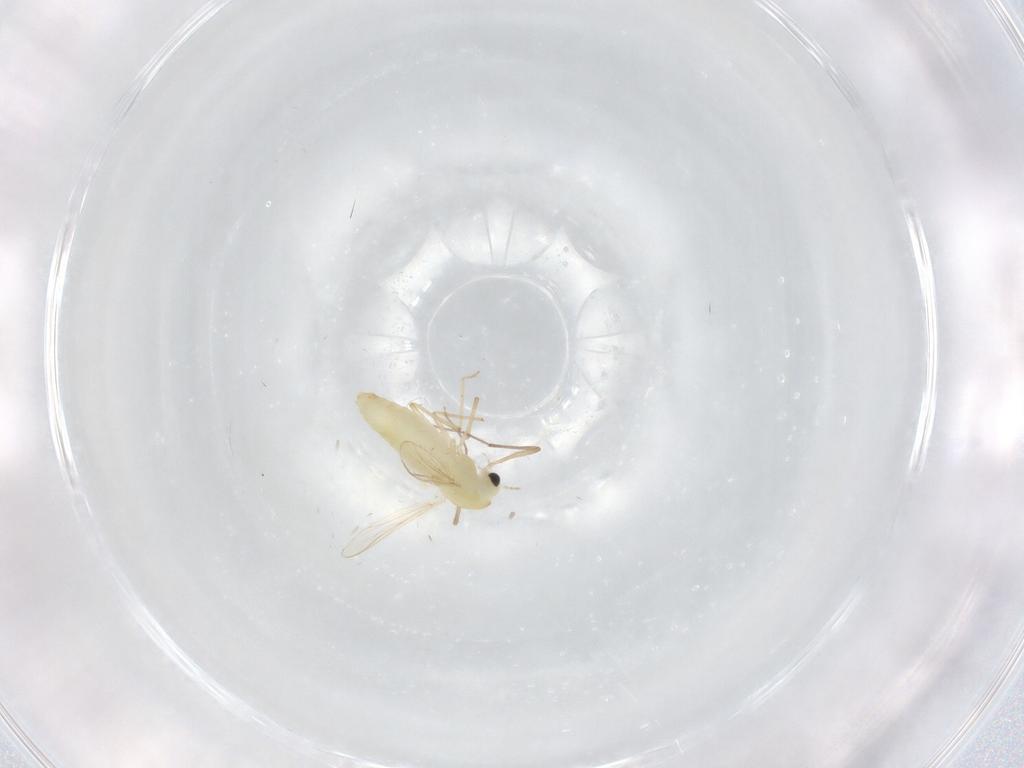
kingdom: Animalia
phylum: Arthropoda
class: Insecta
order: Diptera
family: Chironomidae
